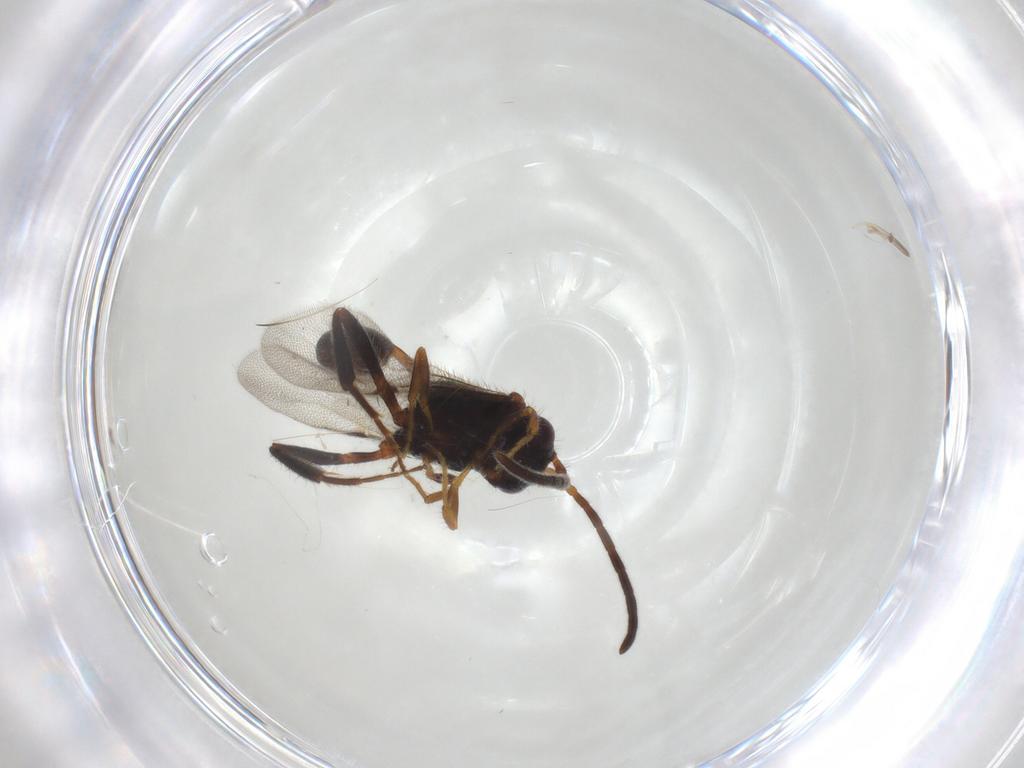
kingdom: Animalia
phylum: Arthropoda
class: Insecta
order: Hymenoptera
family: Evaniidae
